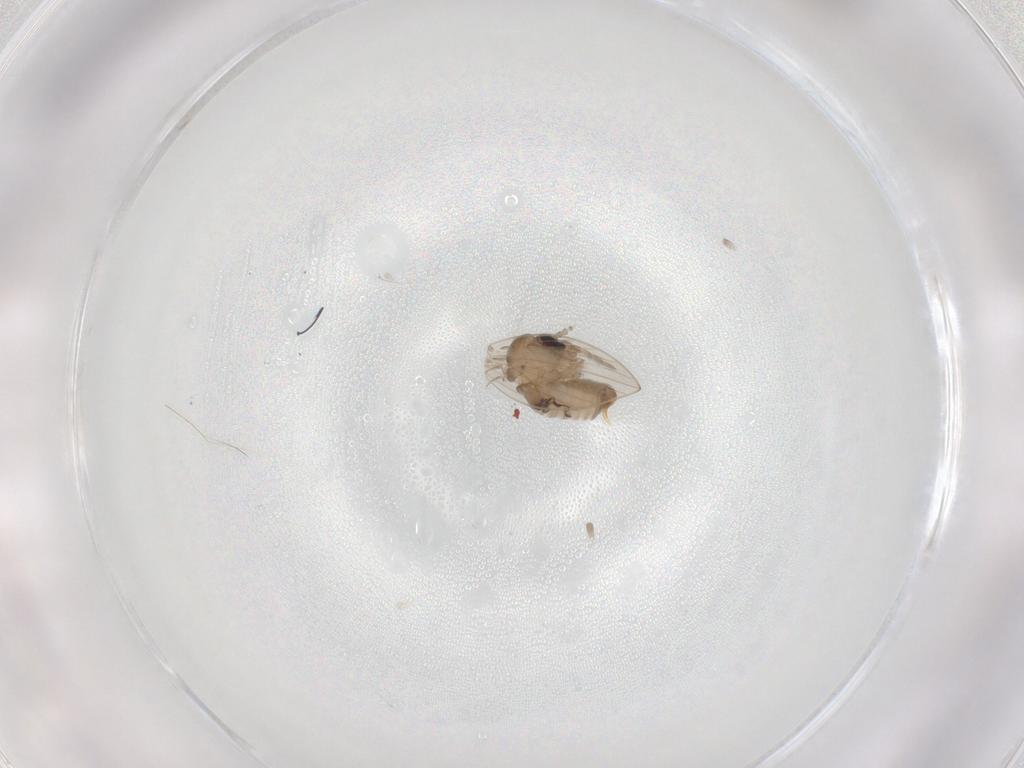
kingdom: Animalia
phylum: Arthropoda
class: Insecta
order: Diptera
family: Psychodidae
